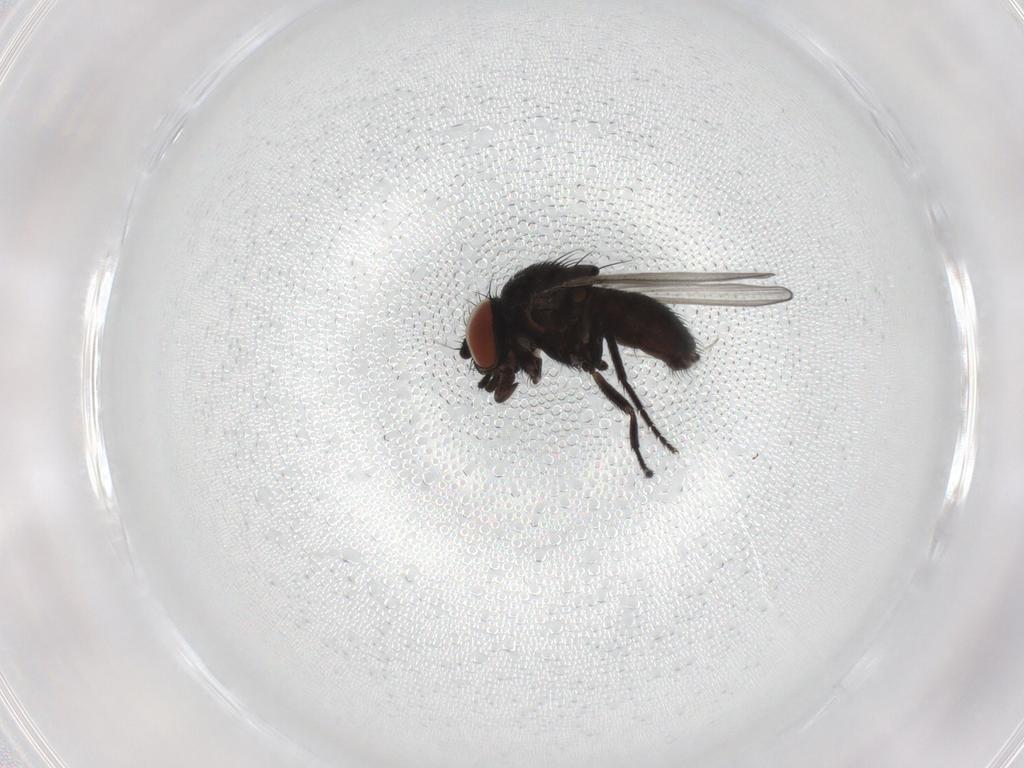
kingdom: Animalia
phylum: Arthropoda
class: Insecta
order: Diptera
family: Milichiidae
